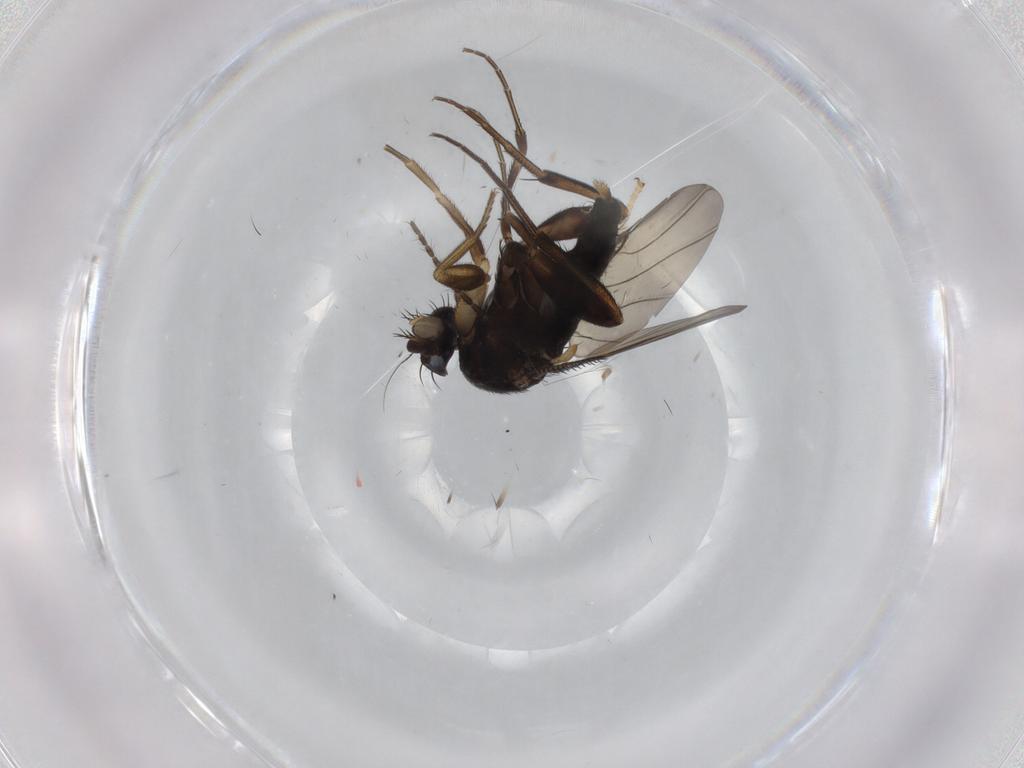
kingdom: Animalia
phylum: Arthropoda
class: Insecta
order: Diptera
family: Phoridae
